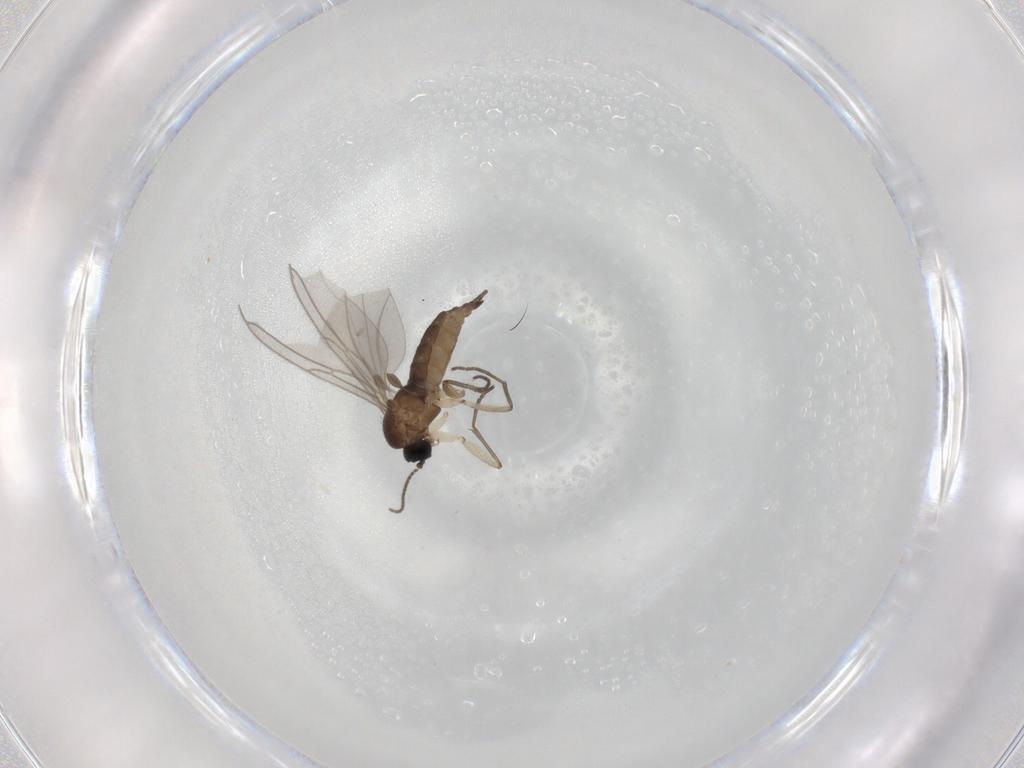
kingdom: Animalia
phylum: Arthropoda
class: Insecta
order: Diptera
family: Sciaridae
